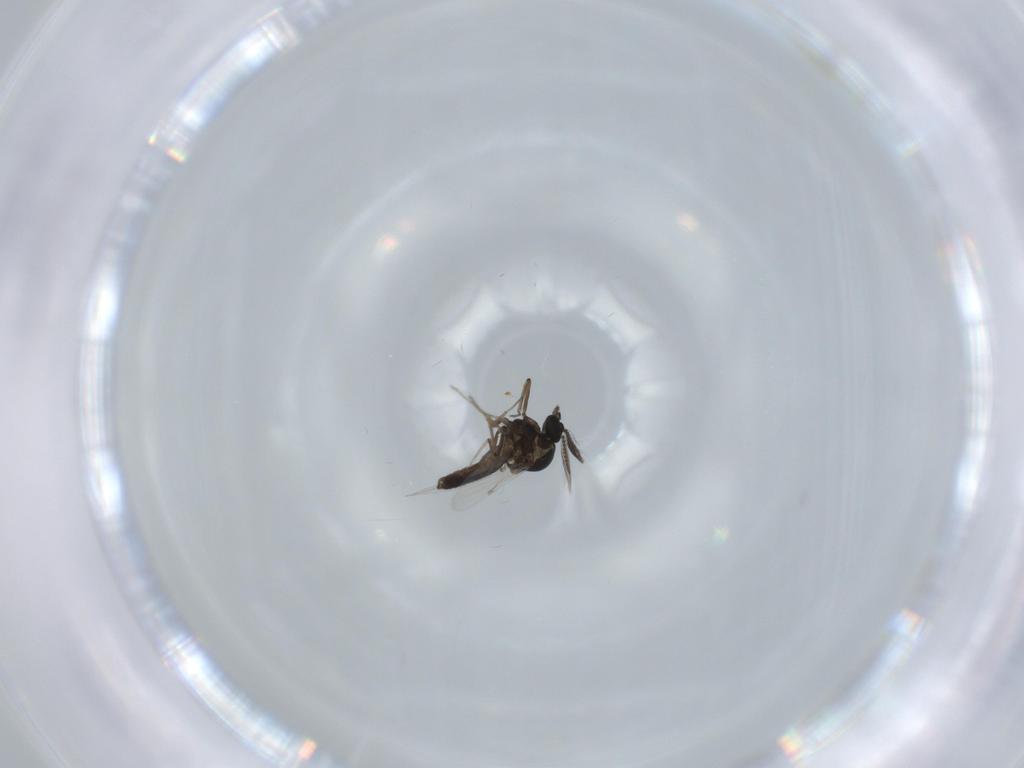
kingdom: Animalia
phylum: Arthropoda
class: Insecta
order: Diptera
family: Ceratopogonidae
